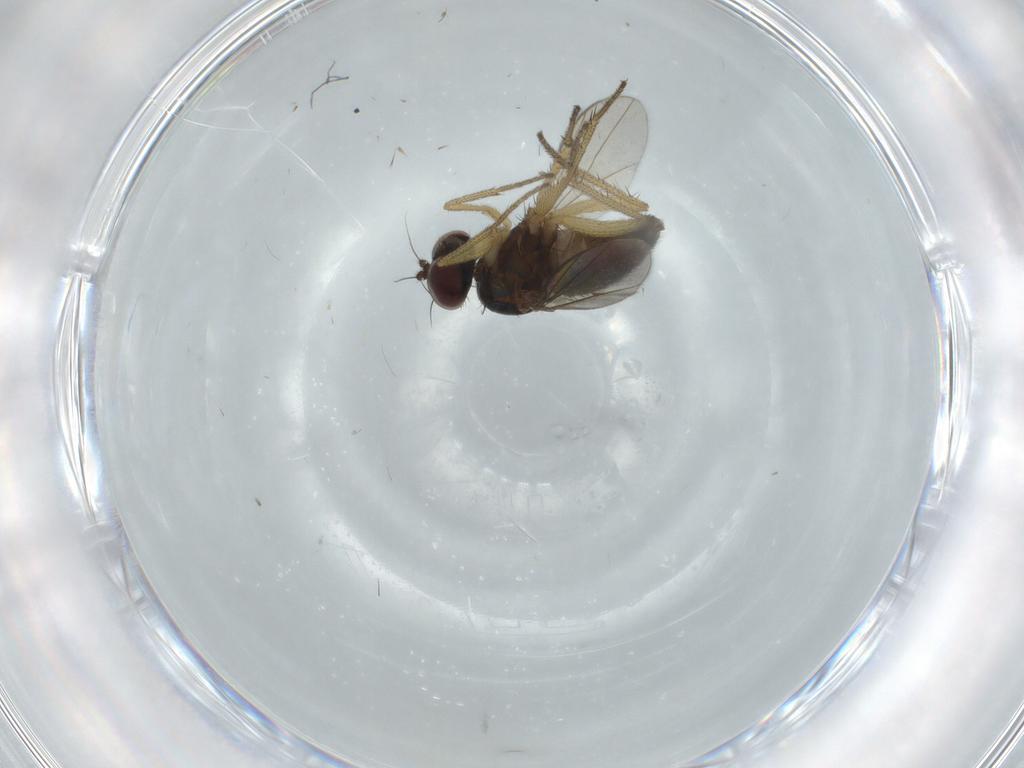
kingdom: Animalia
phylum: Arthropoda
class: Insecta
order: Diptera
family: Dolichopodidae
